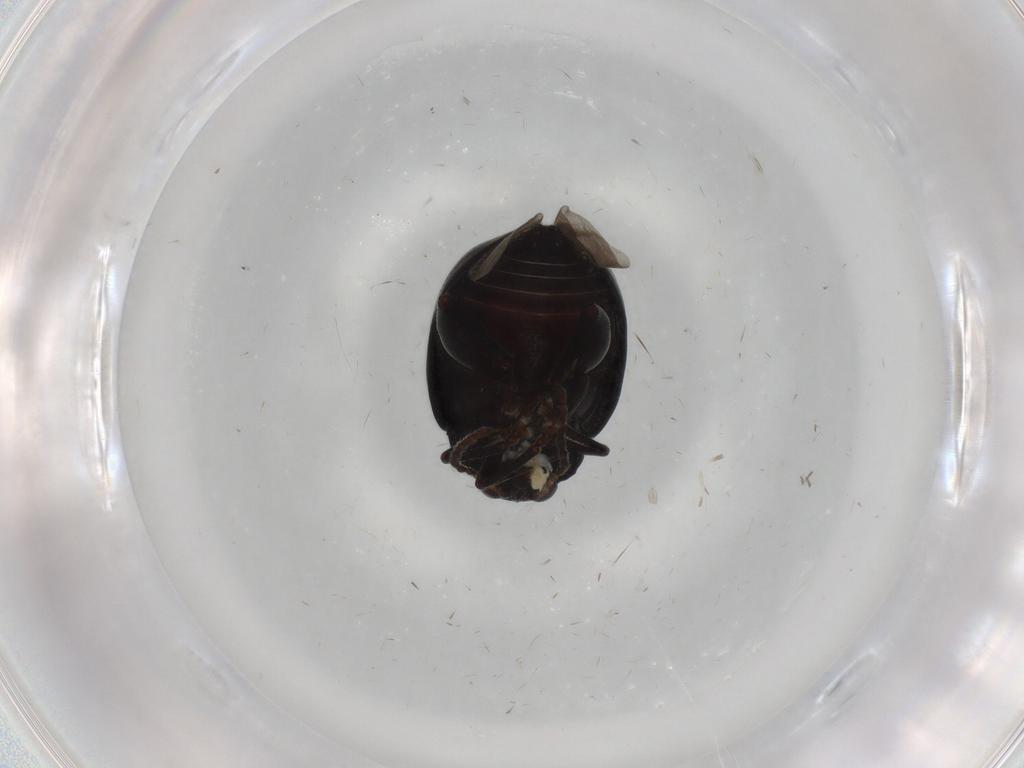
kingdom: Animalia
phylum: Arthropoda
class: Insecta
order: Coleoptera
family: Chrysomelidae
